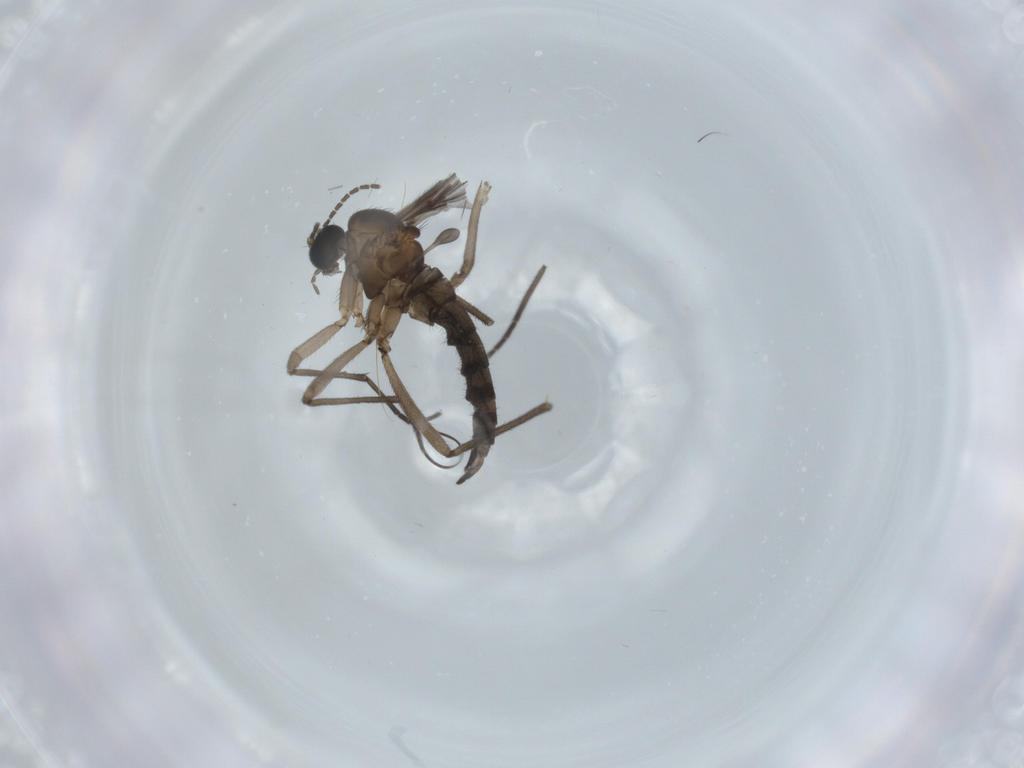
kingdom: Animalia
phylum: Arthropoda
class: Insecta
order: Diptera
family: Sciaridae
